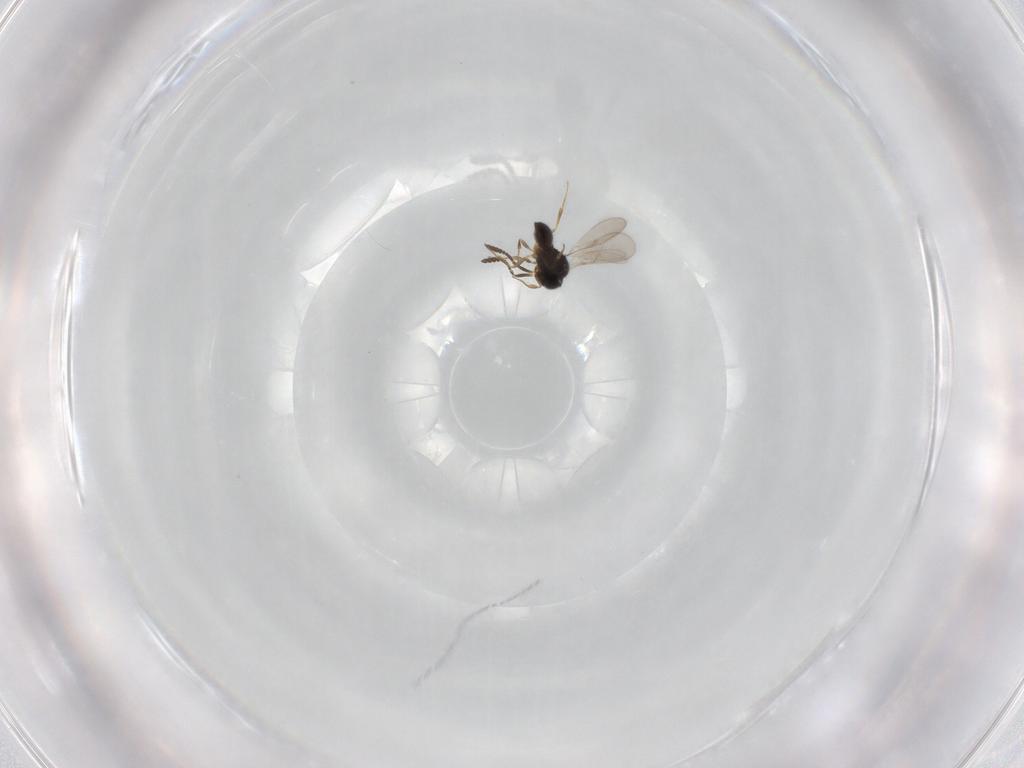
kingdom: Animalia
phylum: Arthropoda
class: Insecta
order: Hymenoptera
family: Scelionidae
